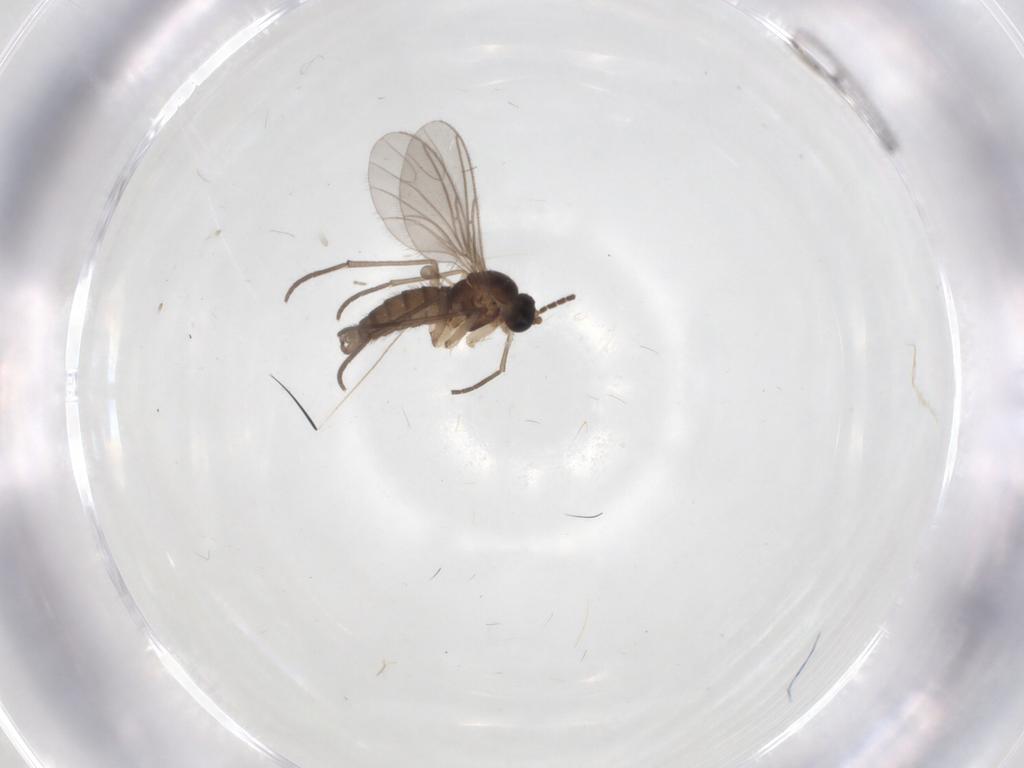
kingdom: Animalia
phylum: Arthropoda
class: Insecta
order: Diptera
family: Sciaridae
